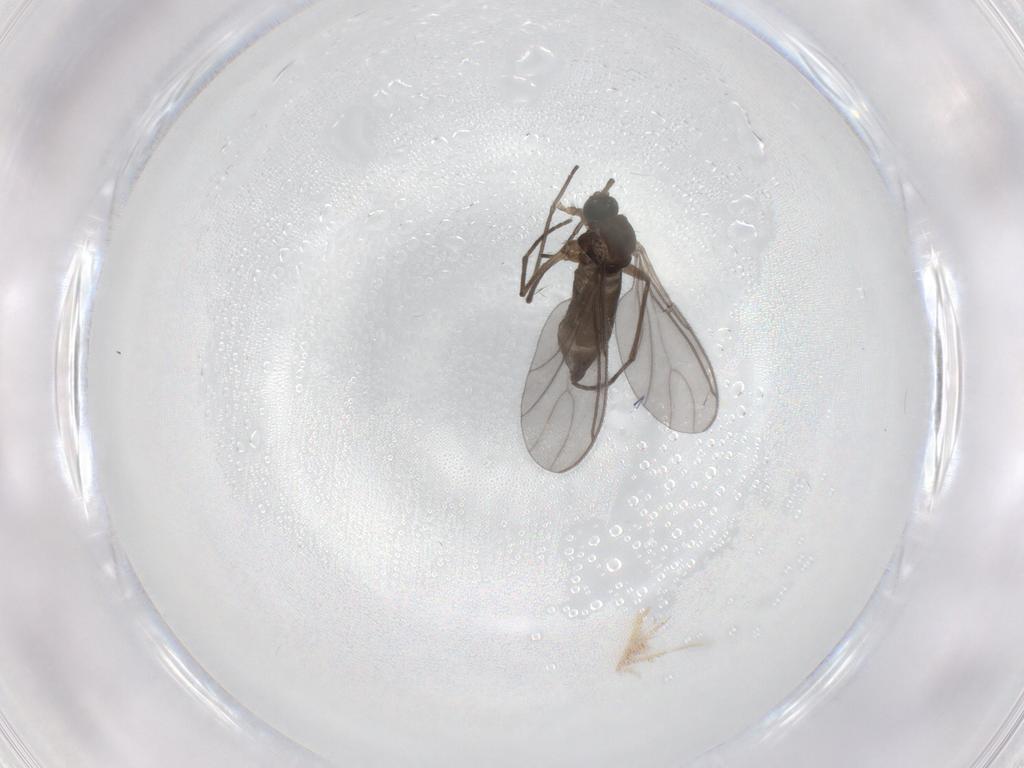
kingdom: Animalia
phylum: Arthropoda
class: Insecta
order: Diptera
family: Sciaridae
